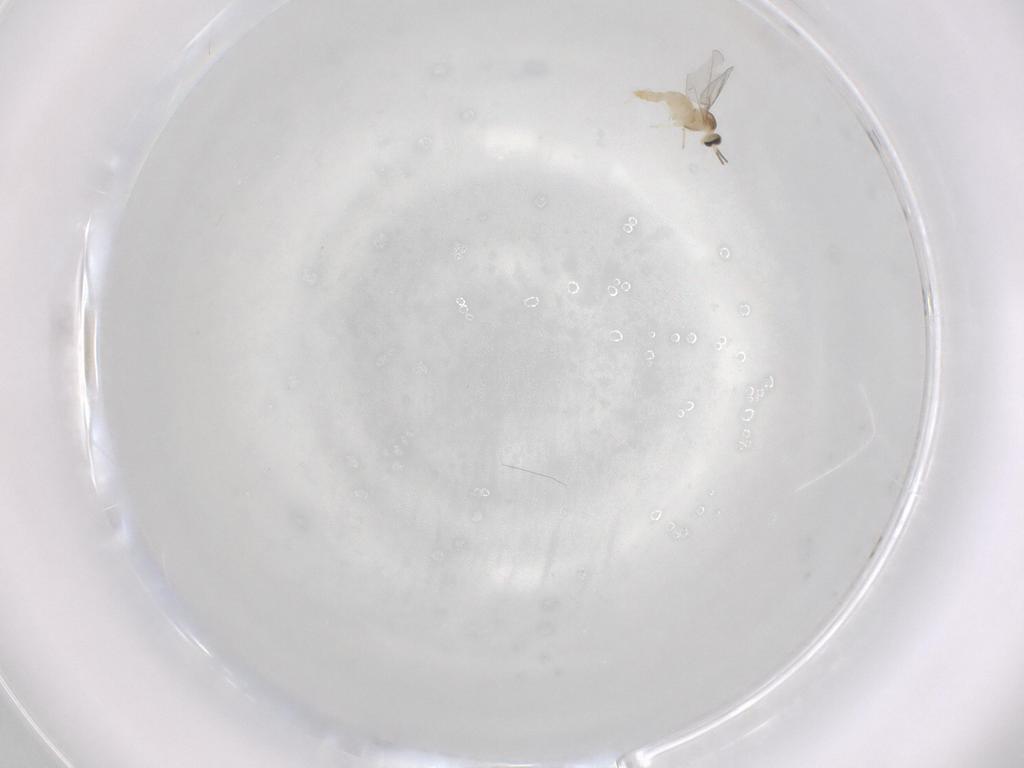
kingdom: Animalia
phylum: Arthropoda
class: Insecta
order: Diptera
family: Cecidomyiidae
